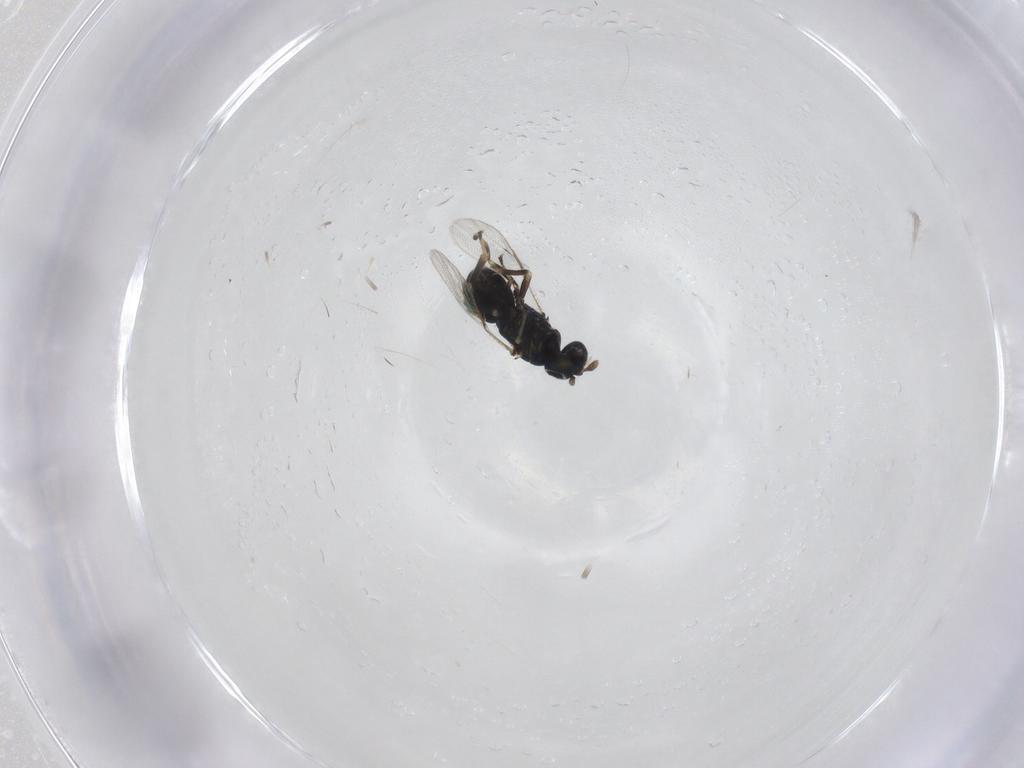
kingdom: Animalia
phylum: Arthropoda
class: Insecta
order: Hymenoptera
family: Eulophidae
